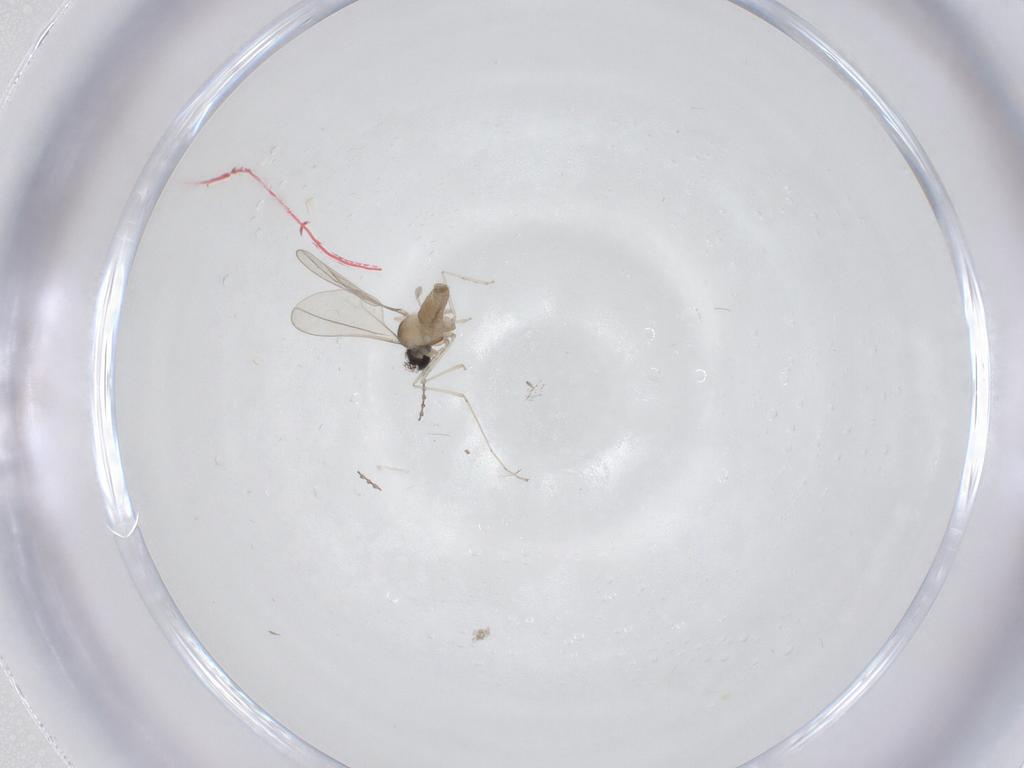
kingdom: Animalia
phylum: Arthropoda
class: Insecta
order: Diptera
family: Cecidomyiidae
